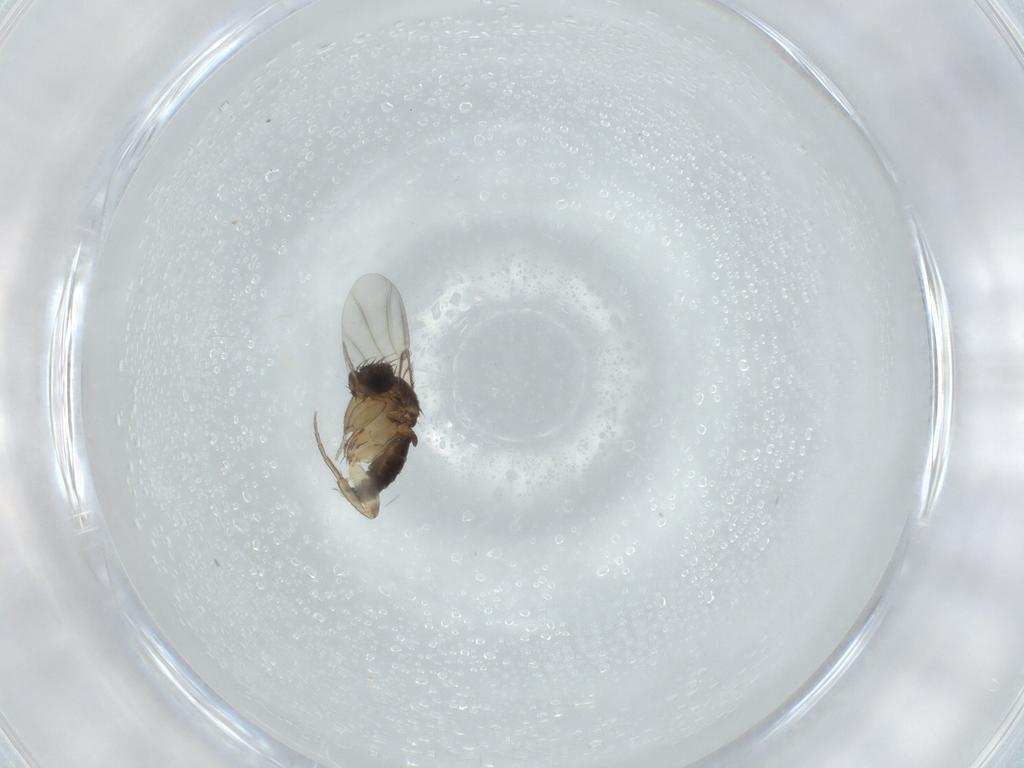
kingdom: Animalia
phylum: Arthropoda
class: Insecta
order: Diptera
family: Phoridae
